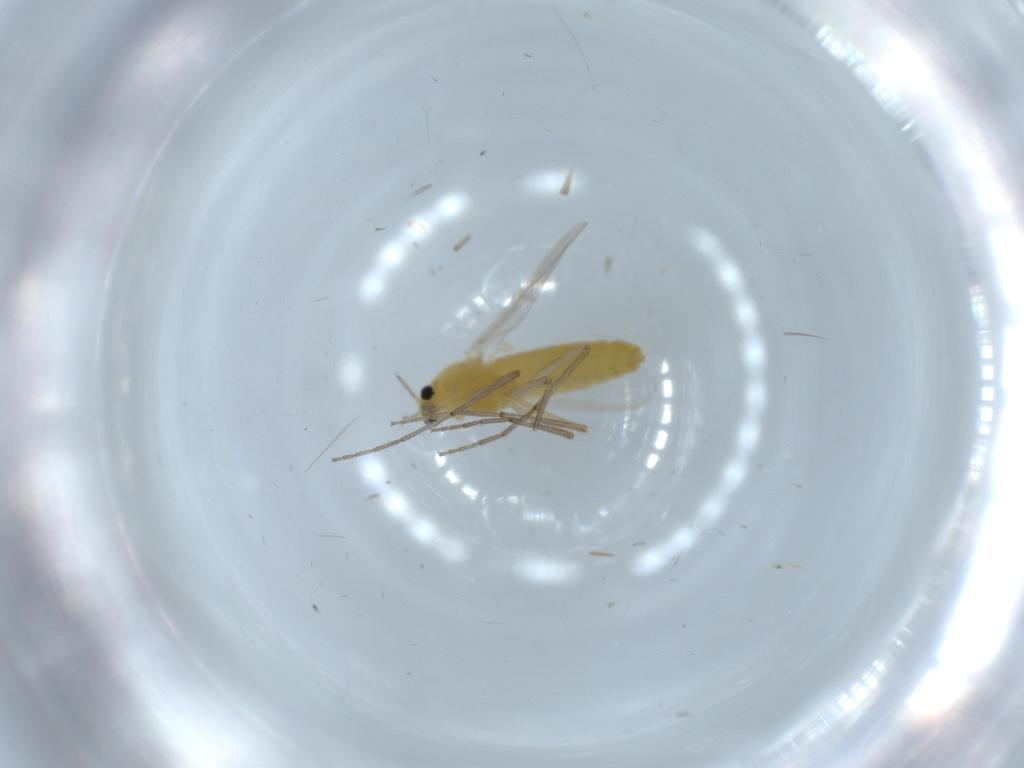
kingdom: Animalia
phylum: Arthropoda
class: Insecta
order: Diptera
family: Chironomidae
